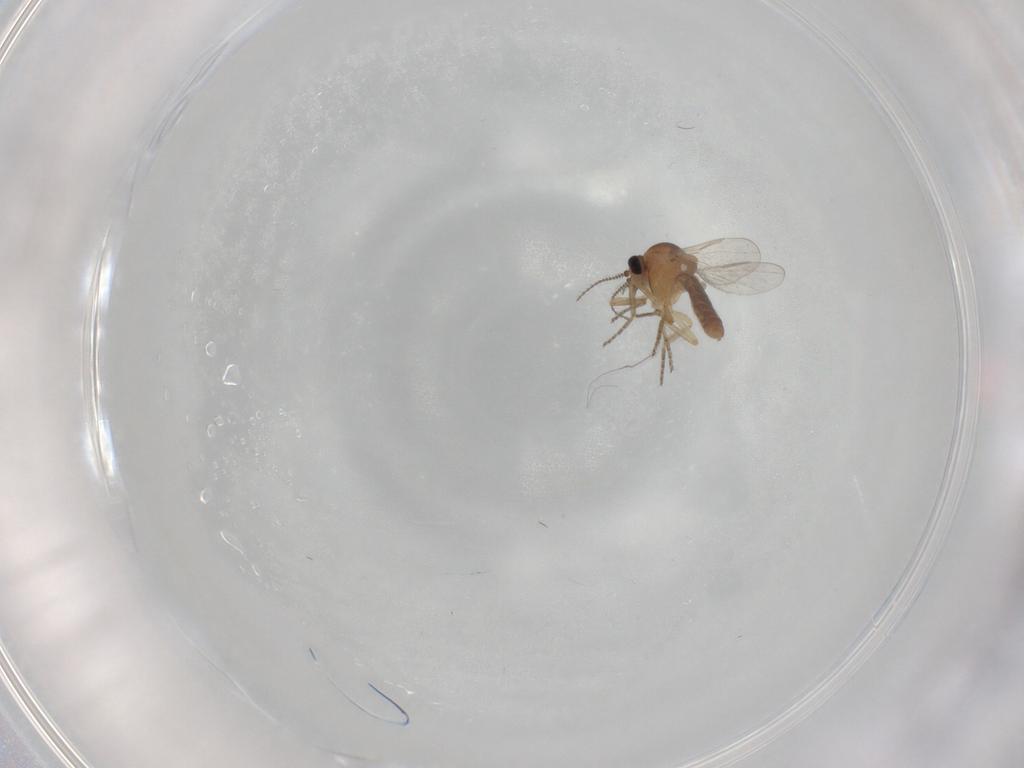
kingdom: Animalia
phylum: Arthropoda
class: Insecta
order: Diptera
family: Ceratopogonidae
